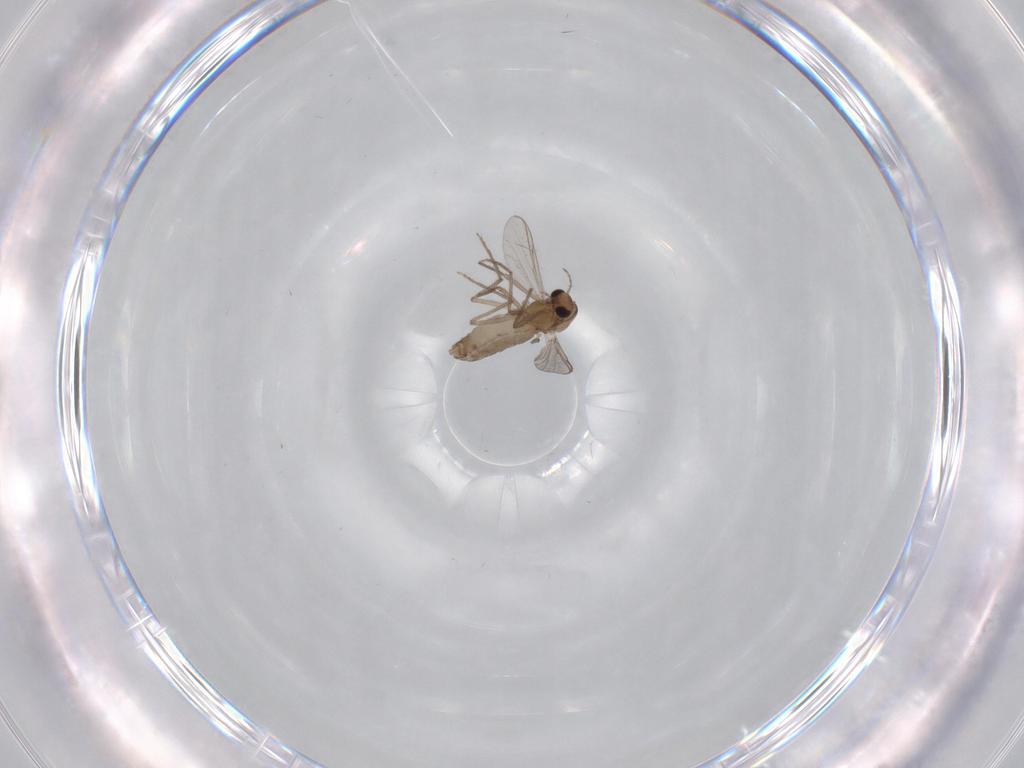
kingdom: Animalia
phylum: Arthropoda
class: Insecta
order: Diptera
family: Chironomidae
